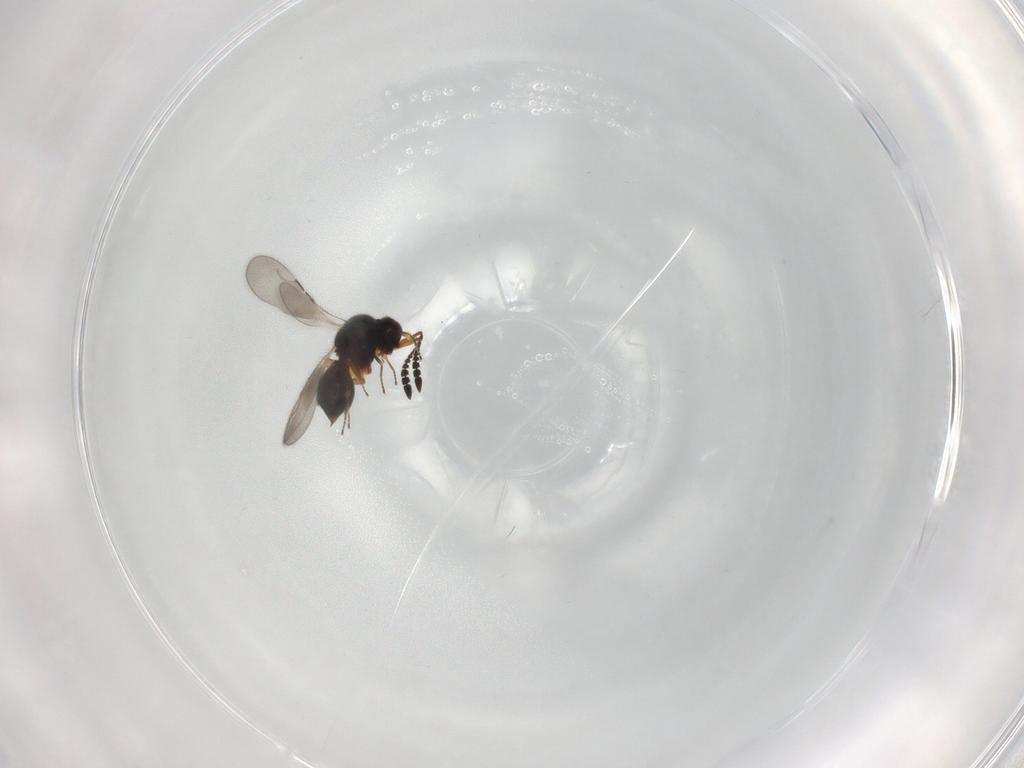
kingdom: Animalia
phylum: Arthropoda
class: Insecta
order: Hymenoptera
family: Ceraphronidae
